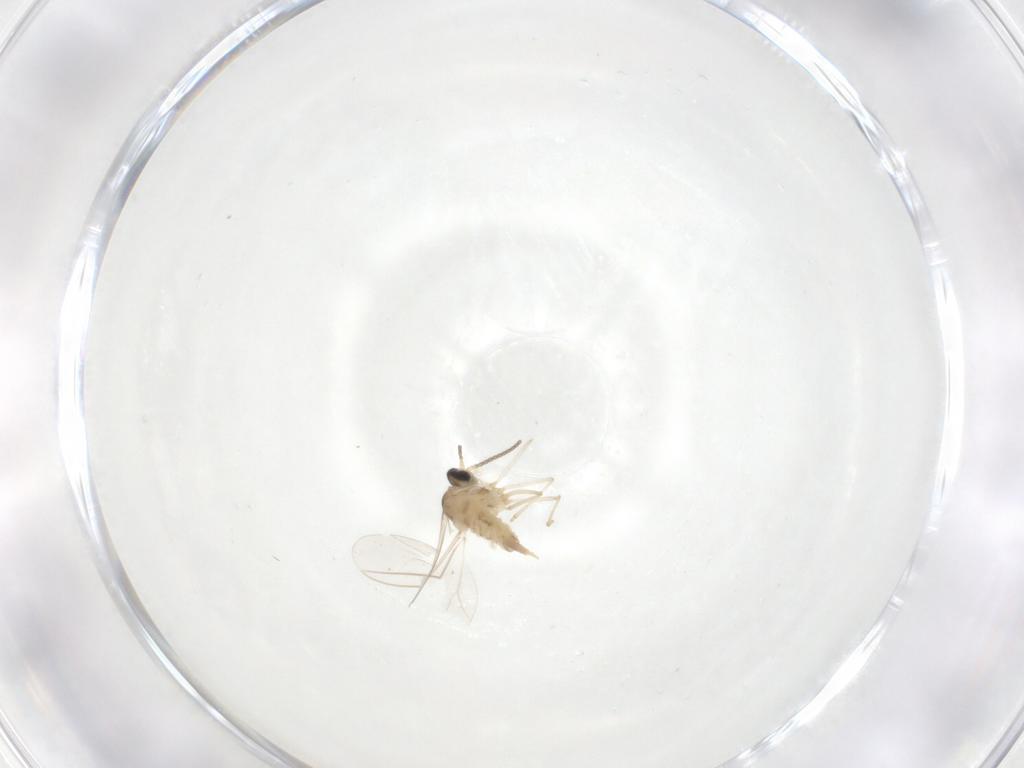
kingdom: Animalia
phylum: Arthropoda
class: Insecta
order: Diptera
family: Cecidomyiidae
